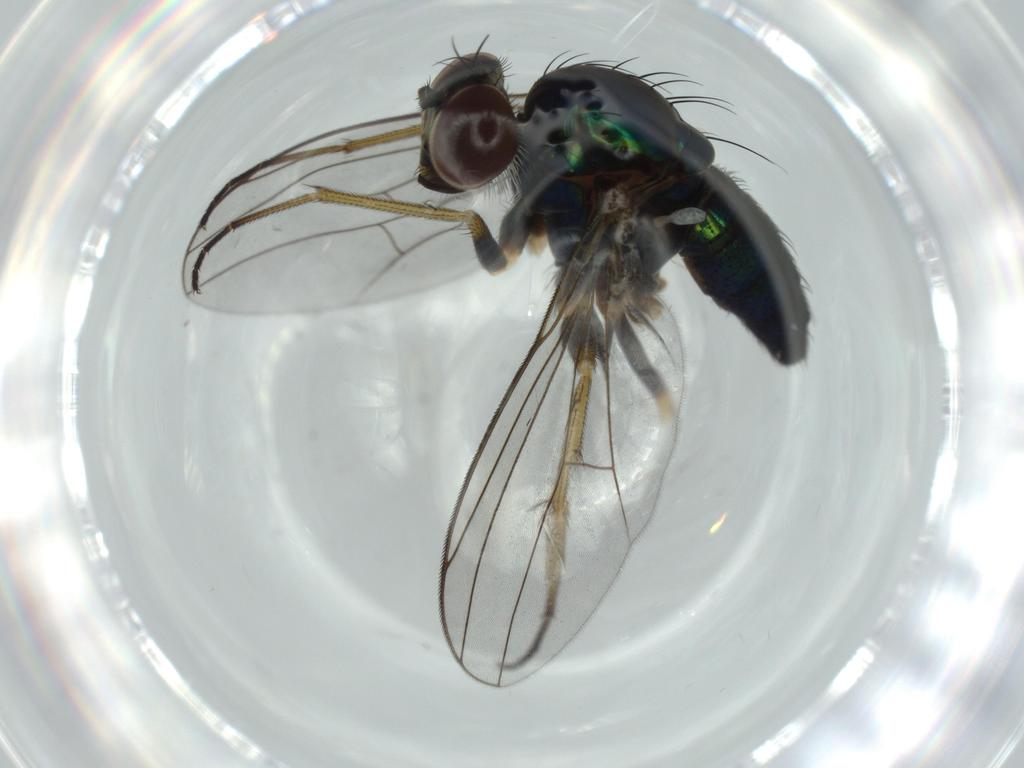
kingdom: Animalia
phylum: Arthropoda
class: Insecta
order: Diptera
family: Dolichopodidae
